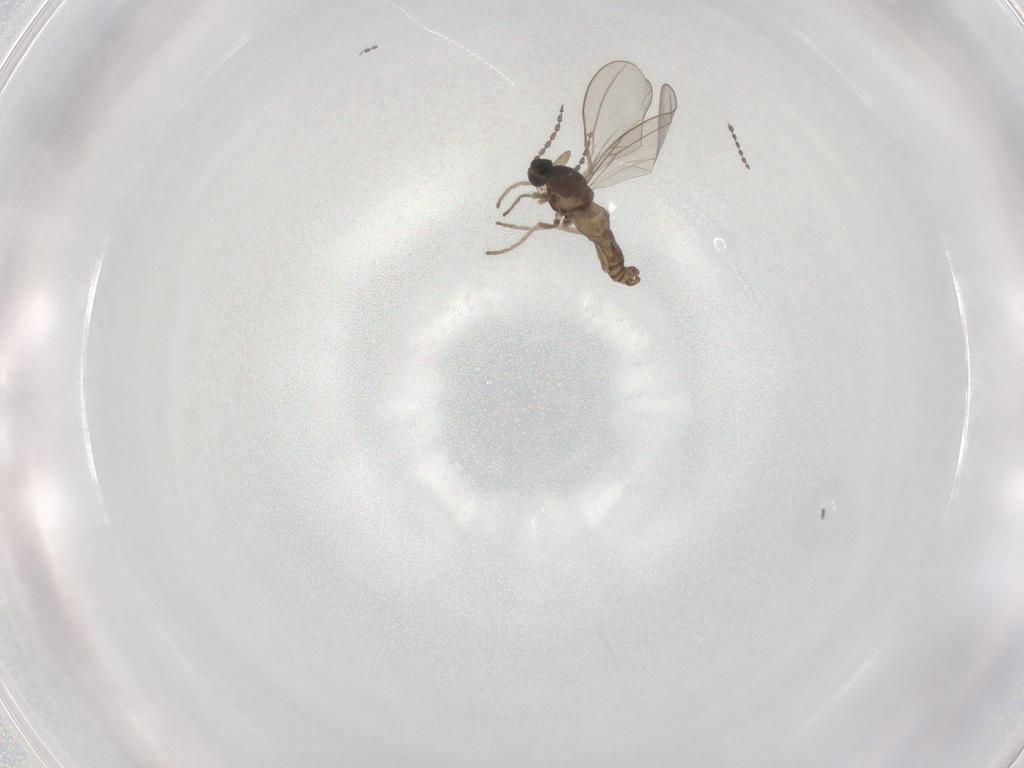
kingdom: Animalia
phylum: Arthropoda
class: Insecta
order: Diptera
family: Cecidomyiidae
